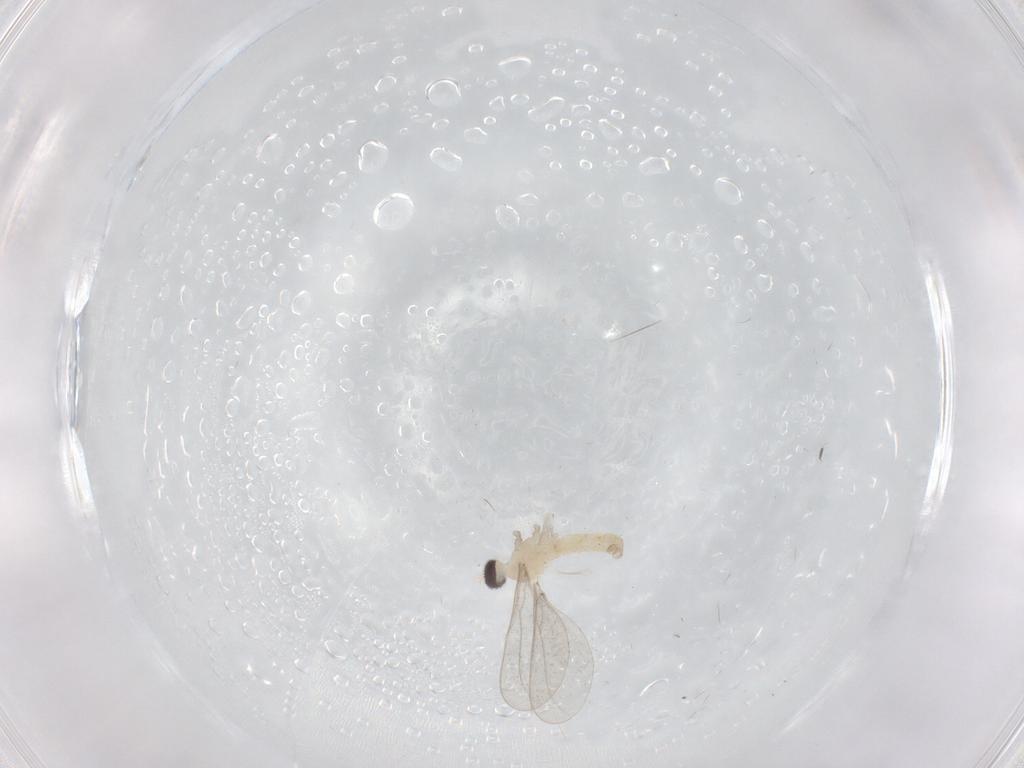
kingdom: Animalia
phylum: Arthropoda
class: Insecta
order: Diptera
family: Cecidomyiidae
